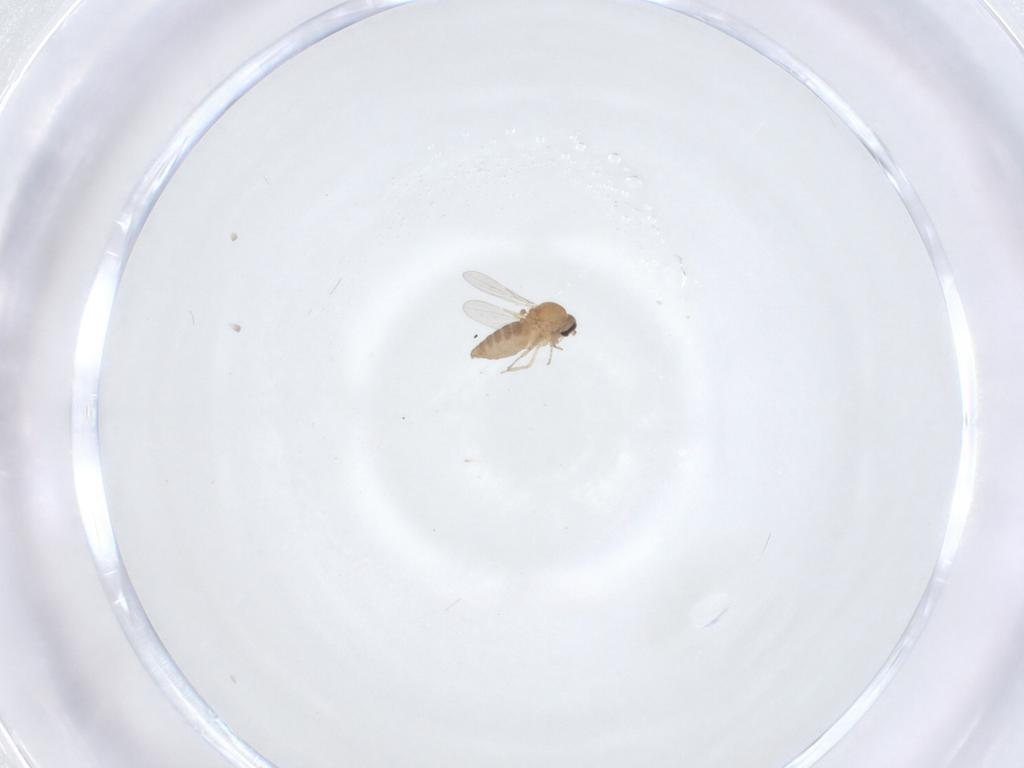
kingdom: Animalia
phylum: Arthropoda
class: Insecta
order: Diptera
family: Ceratopogonidae
